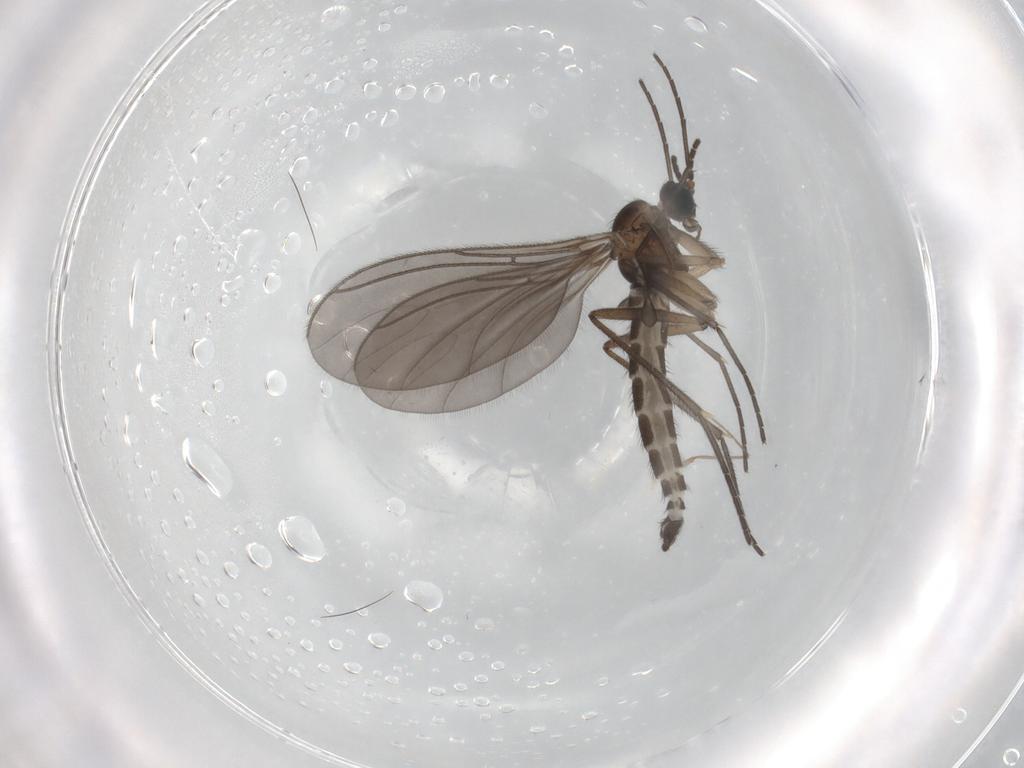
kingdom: Animalia
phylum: Arthropoda
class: Insecta
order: Diptera
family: Sciaridae
